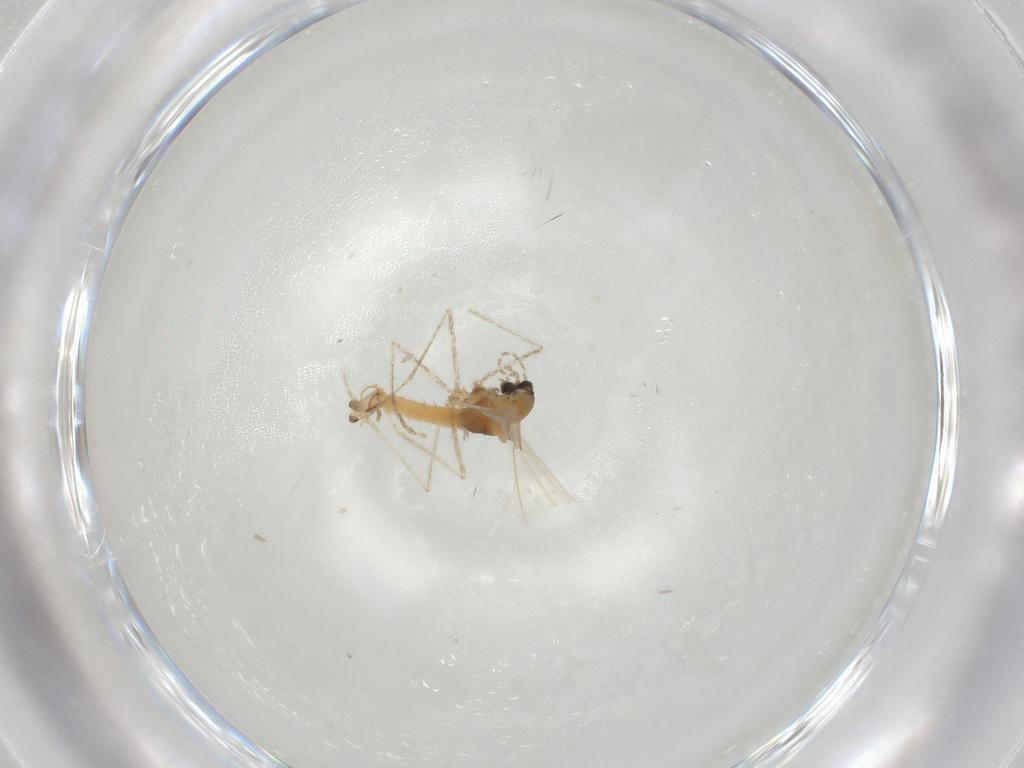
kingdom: Animalia
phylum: Arthropoda
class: Insecta
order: Diptera
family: Cecidomyiidae
